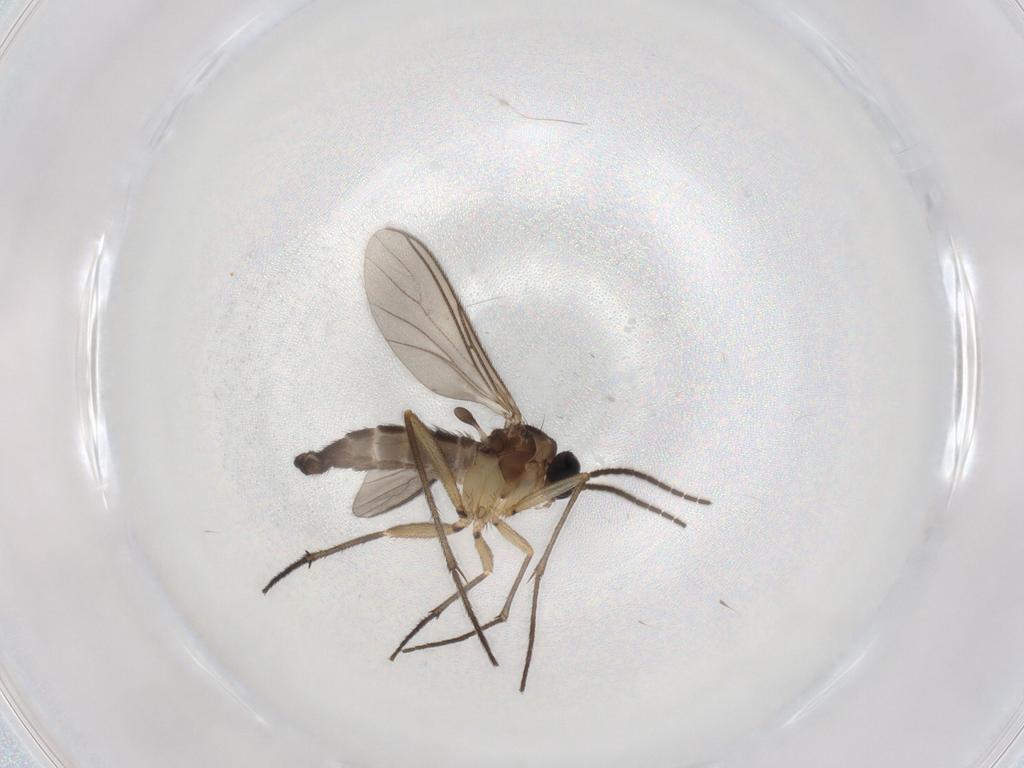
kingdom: Animalia
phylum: Arthropoda
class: Insecta
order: Diptera
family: Sciaridae
